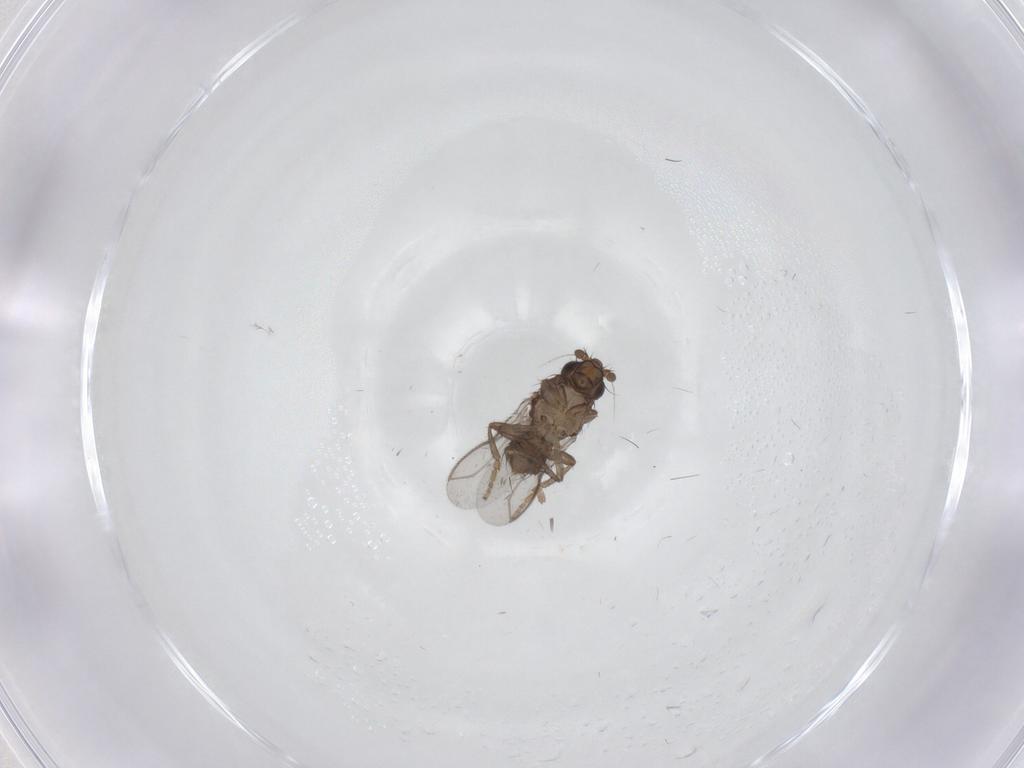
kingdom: Animalia
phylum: Arthropoda
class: Insecta
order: Diptera
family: Sphaeroceridae
